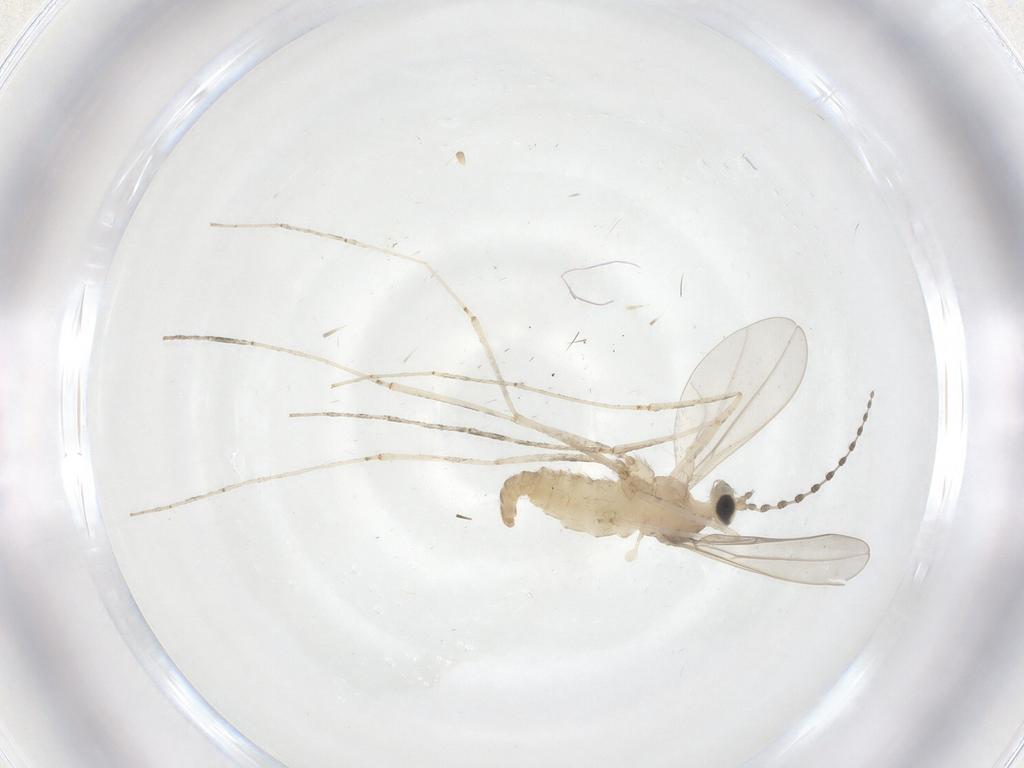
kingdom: Animalia
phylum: Arthropoda
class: Insecta
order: Diptera
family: Cecidomyiidae
